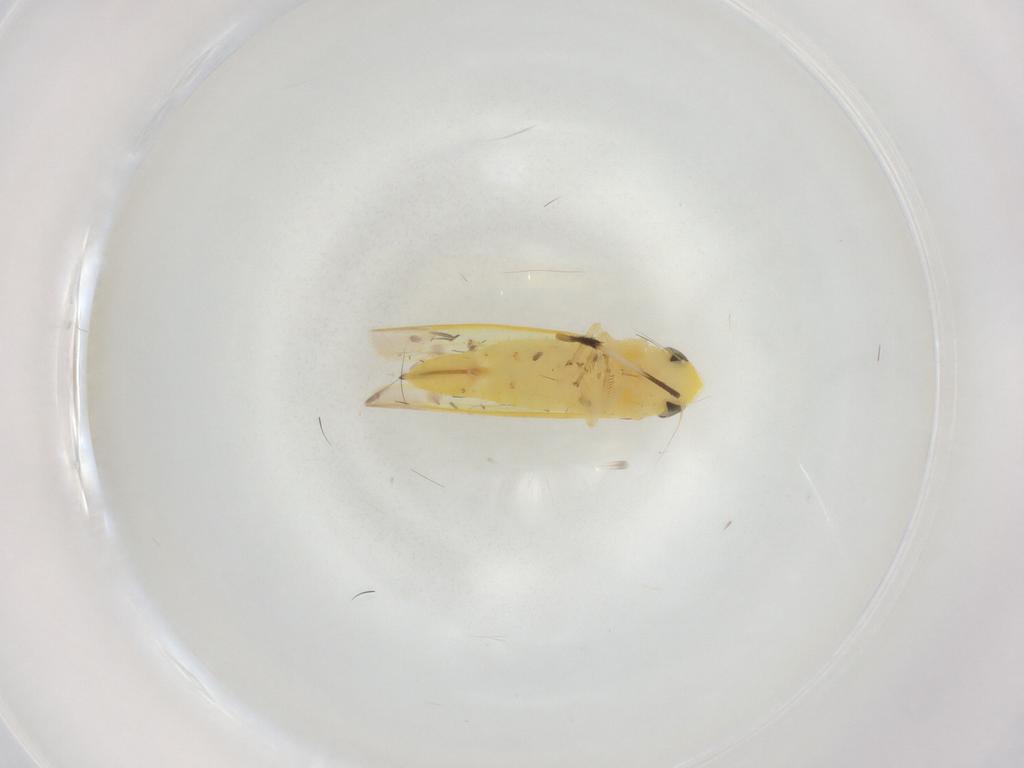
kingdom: Animalia
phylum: Arthropoda
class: Insecta
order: Hemiptera
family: Cicadellidae
